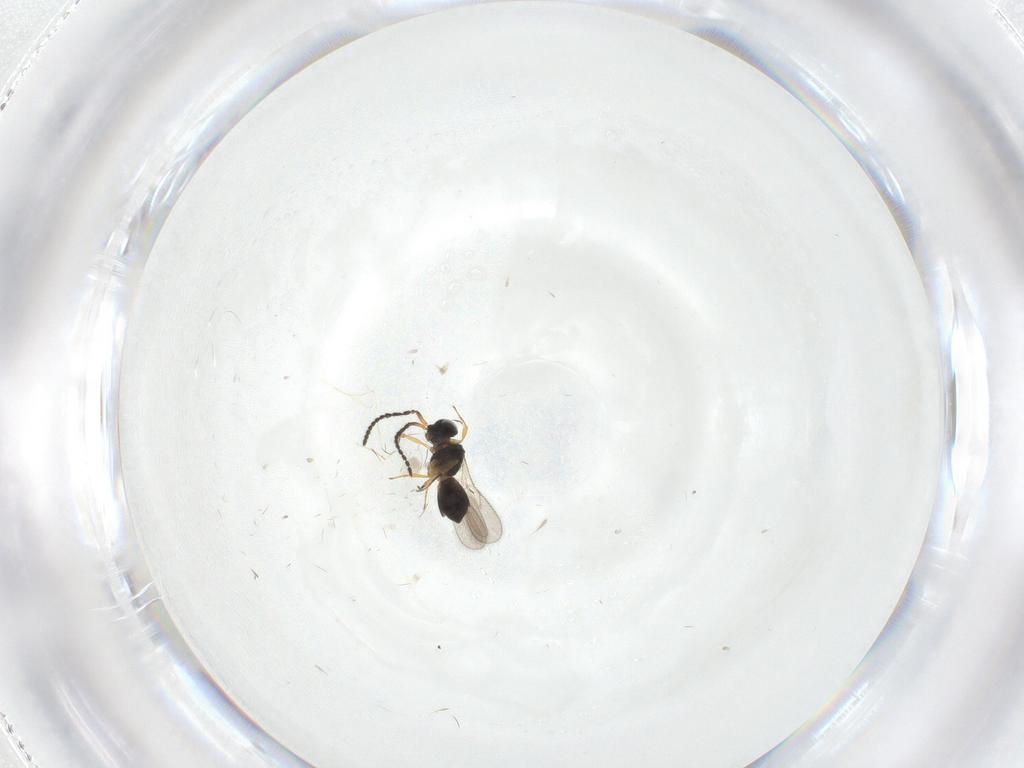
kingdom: Animalia
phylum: Arthropoda
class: Insecta
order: Hymenoptera
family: Scelionidae
